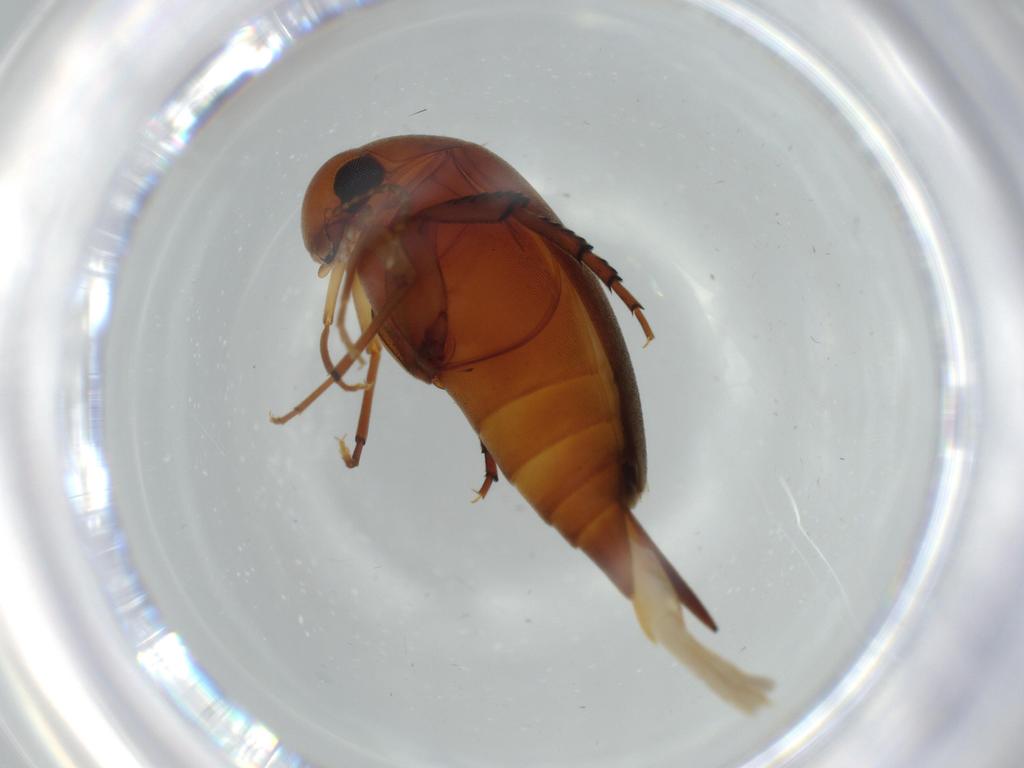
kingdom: Animalia
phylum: Arthropoda
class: Insecta
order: Coleoptera
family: Mordellidae
